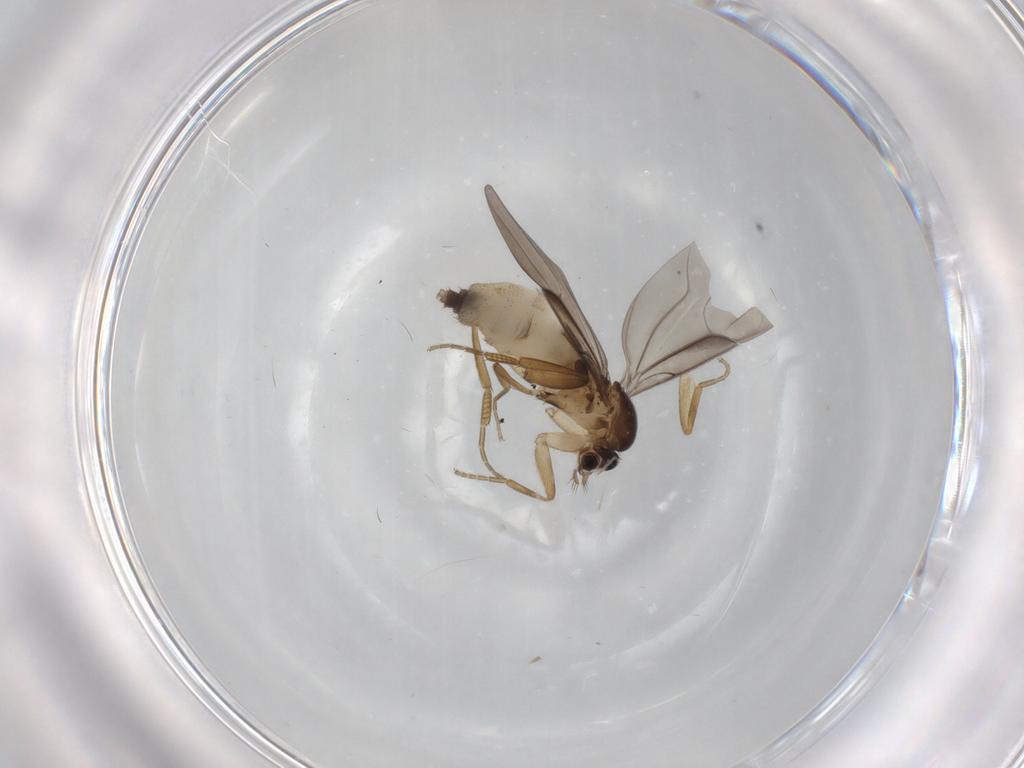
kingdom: Animalia
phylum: Arthropoda
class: Insecta
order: Diptera
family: Phoridae
